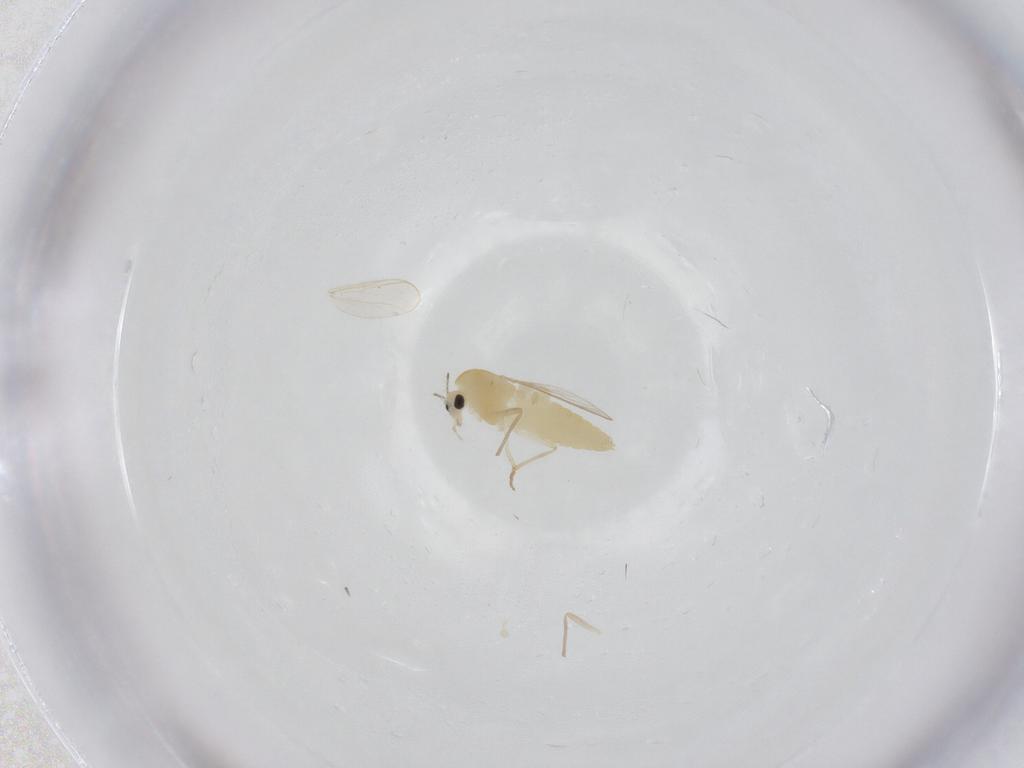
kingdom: Animalia
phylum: Arthropoda
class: Insecta
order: Diptera
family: Chironomidae
